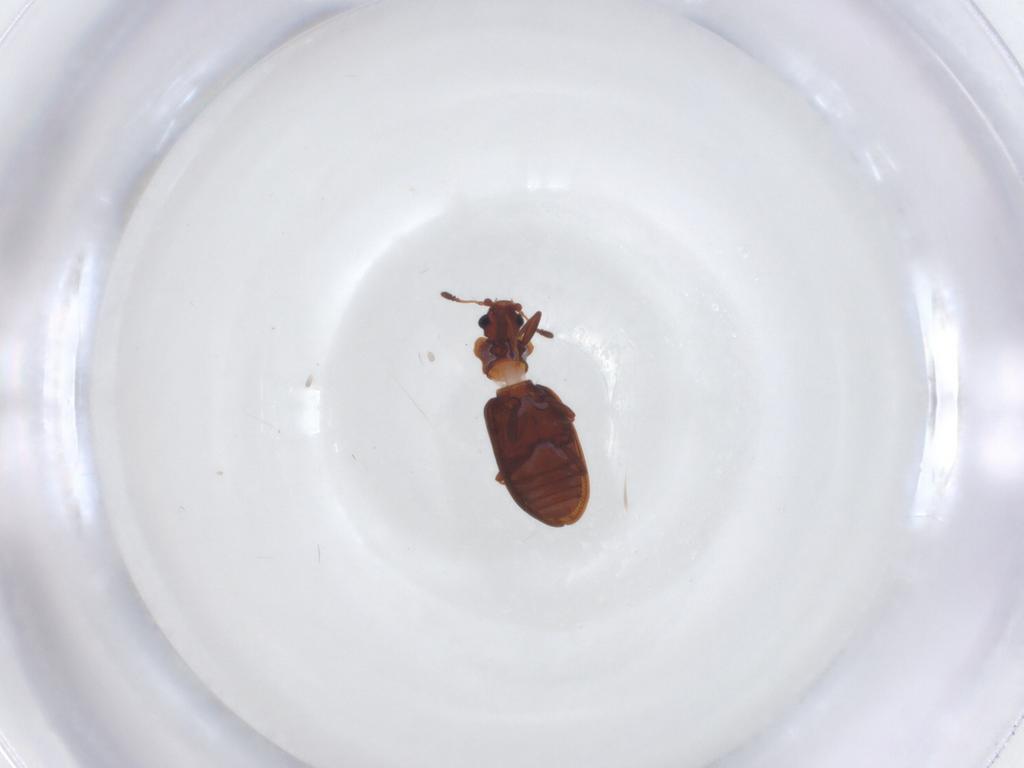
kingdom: Animalia
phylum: Arthropoda
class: Insecta
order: Coleoptera
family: Latridiidae
